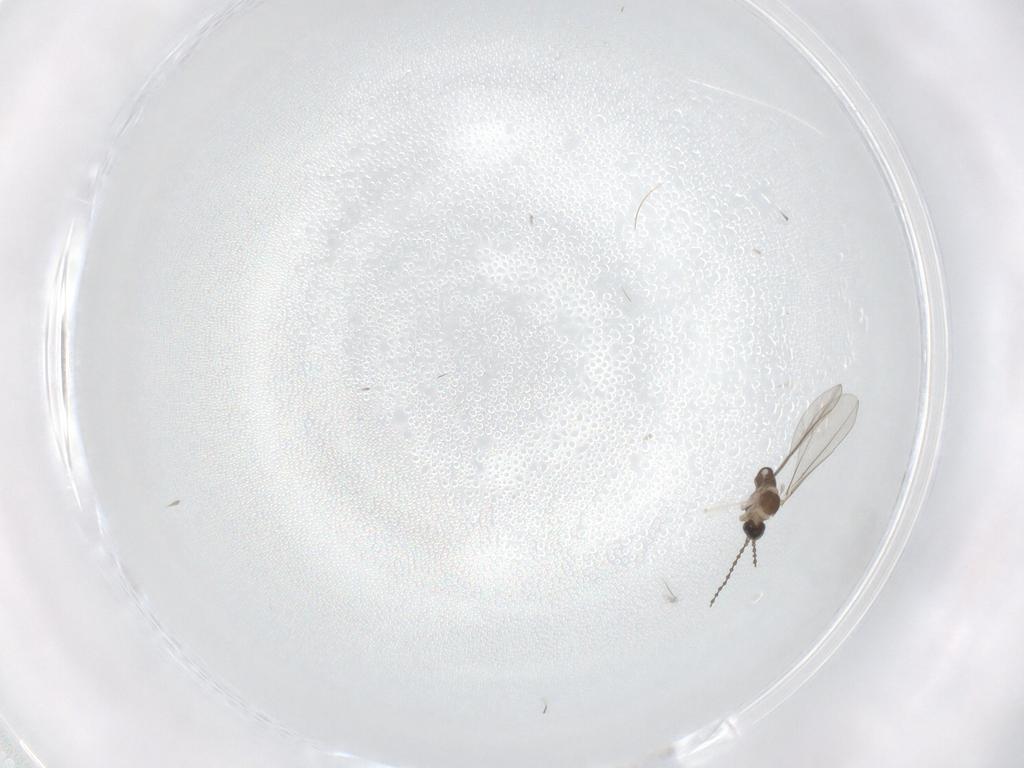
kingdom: Animalia
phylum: Arthropoda
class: Insecta
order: Diptera
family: Cecidomyiidae
